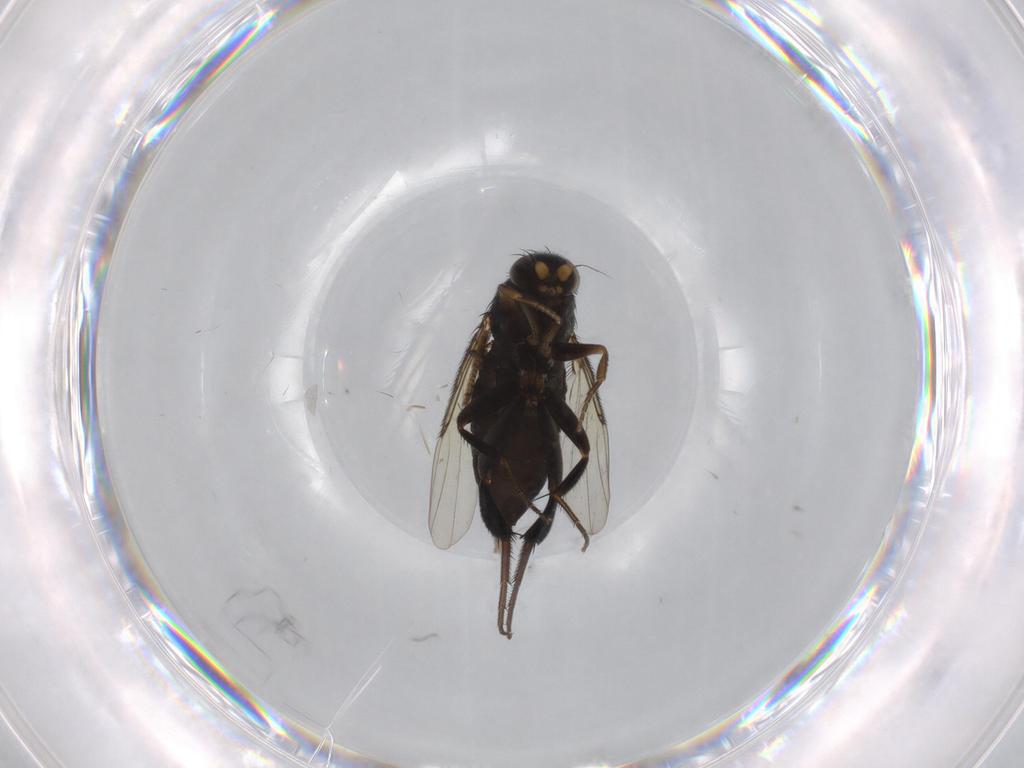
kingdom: Animalia
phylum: Arthropoda
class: Insecta
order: Diptera
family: Phoridae
